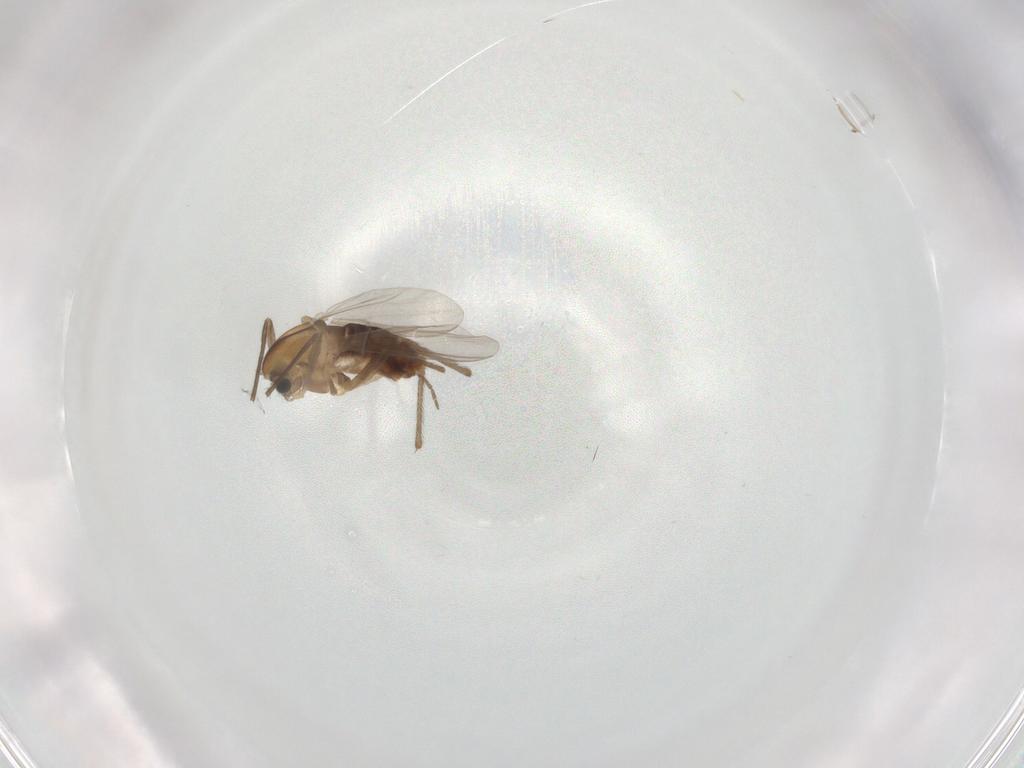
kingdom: Animalia
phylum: Arthropoda
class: Insecta
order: Diptera
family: Chironomidae
